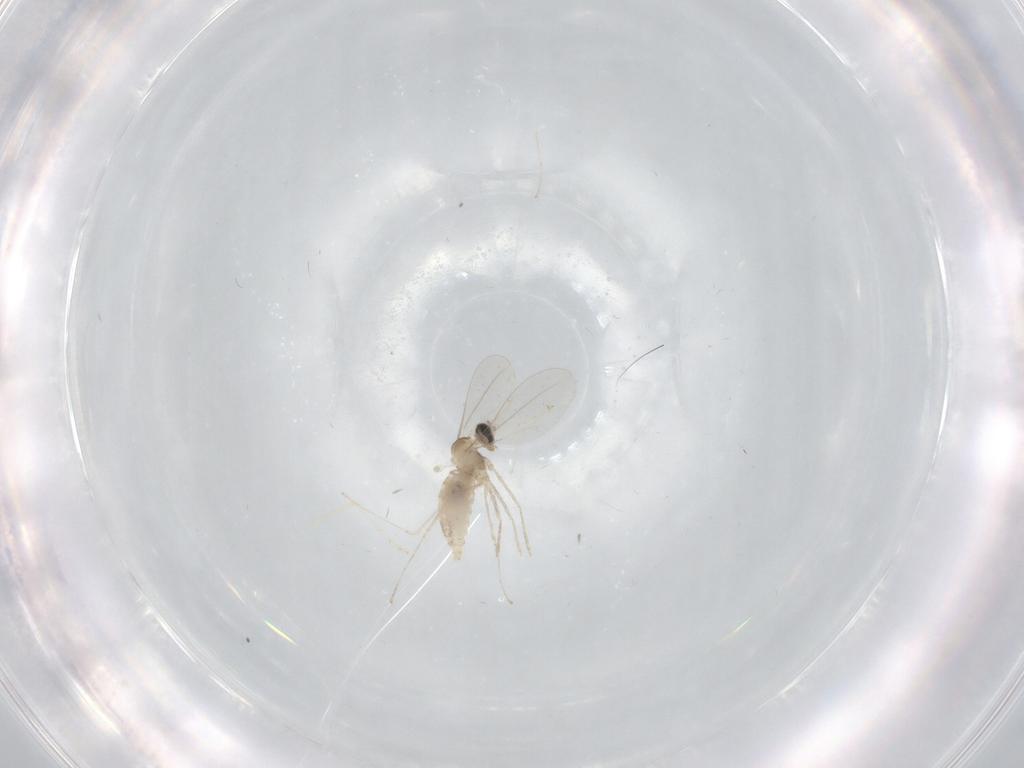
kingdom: Animalia
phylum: Arthropoda
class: Insecta
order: Diptera
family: Cecidomyiidae
